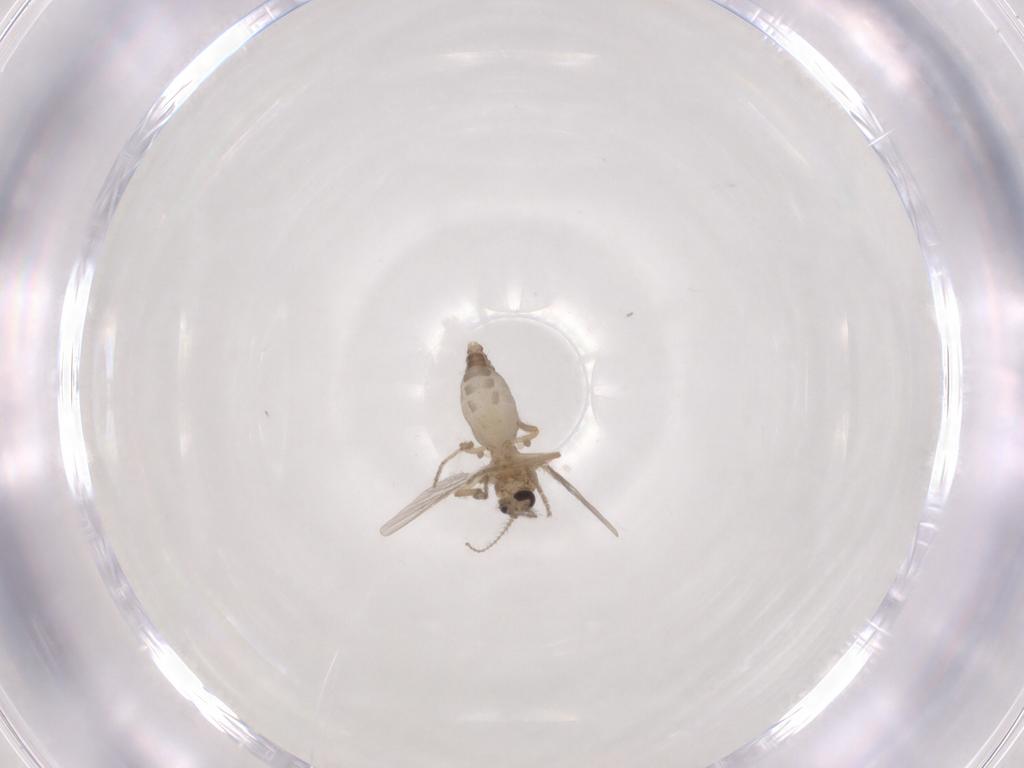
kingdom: Animalia
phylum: Arthropoda
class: Insecta
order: Diptera
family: Ceratopogonidae
